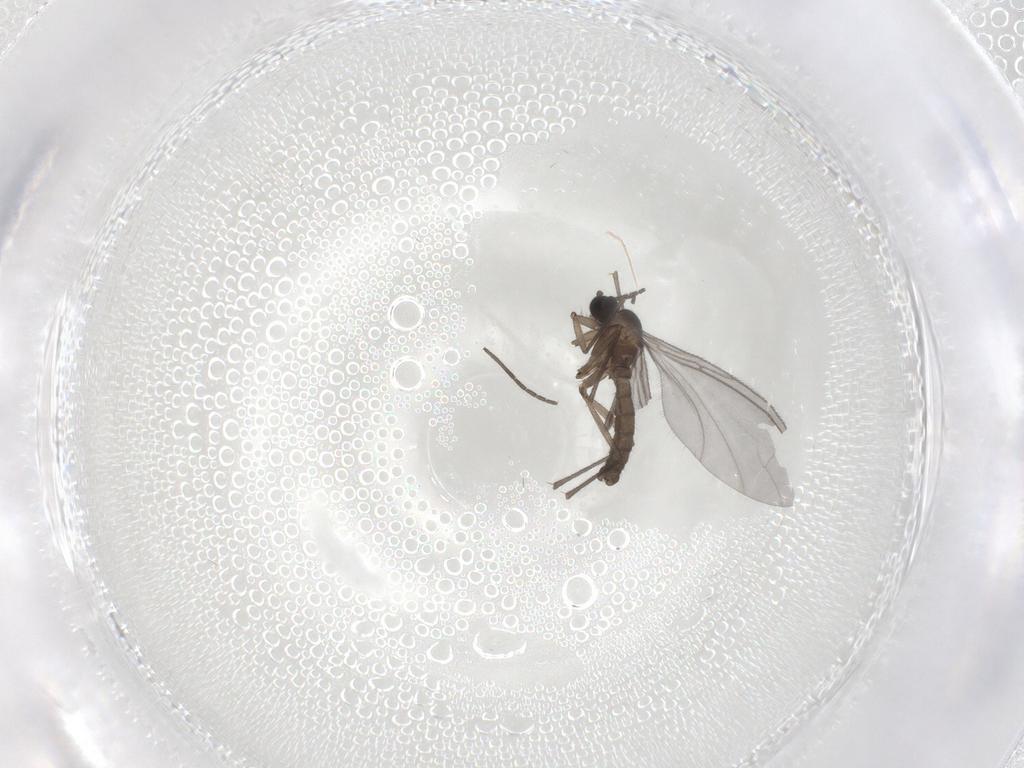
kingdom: Animalia
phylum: Arthropoda
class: Insecta
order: Diptera
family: Sciaridae
